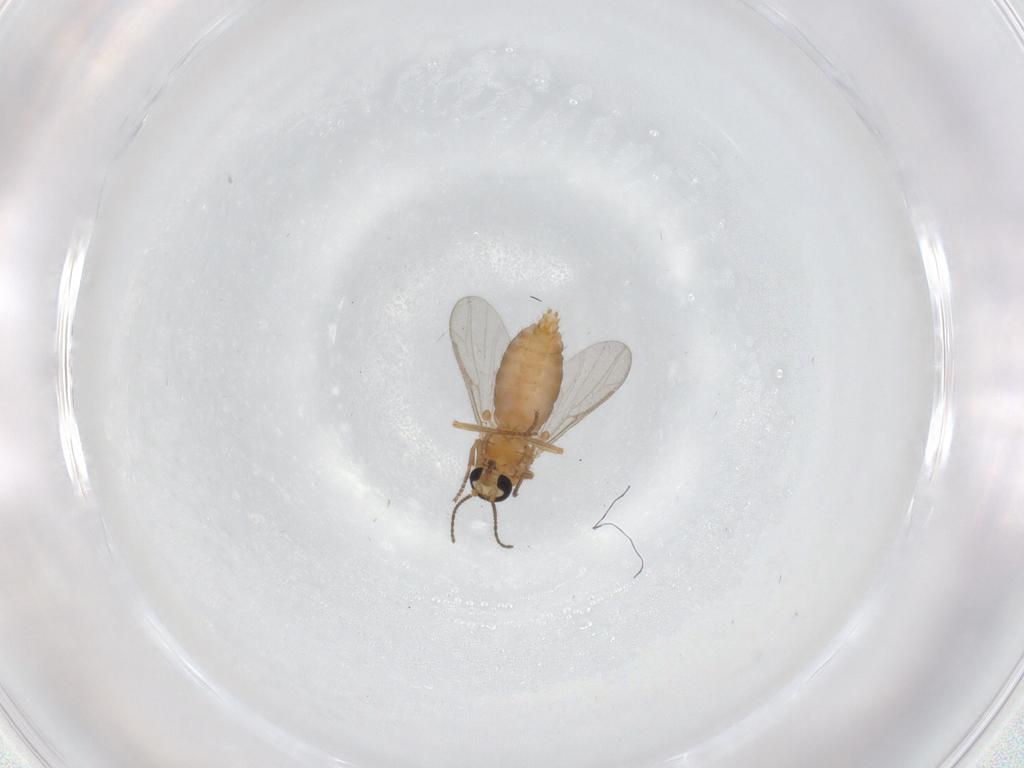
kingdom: Animalia
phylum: Arthropoda
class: Insecta
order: Diptera
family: Ceratopogonidae
